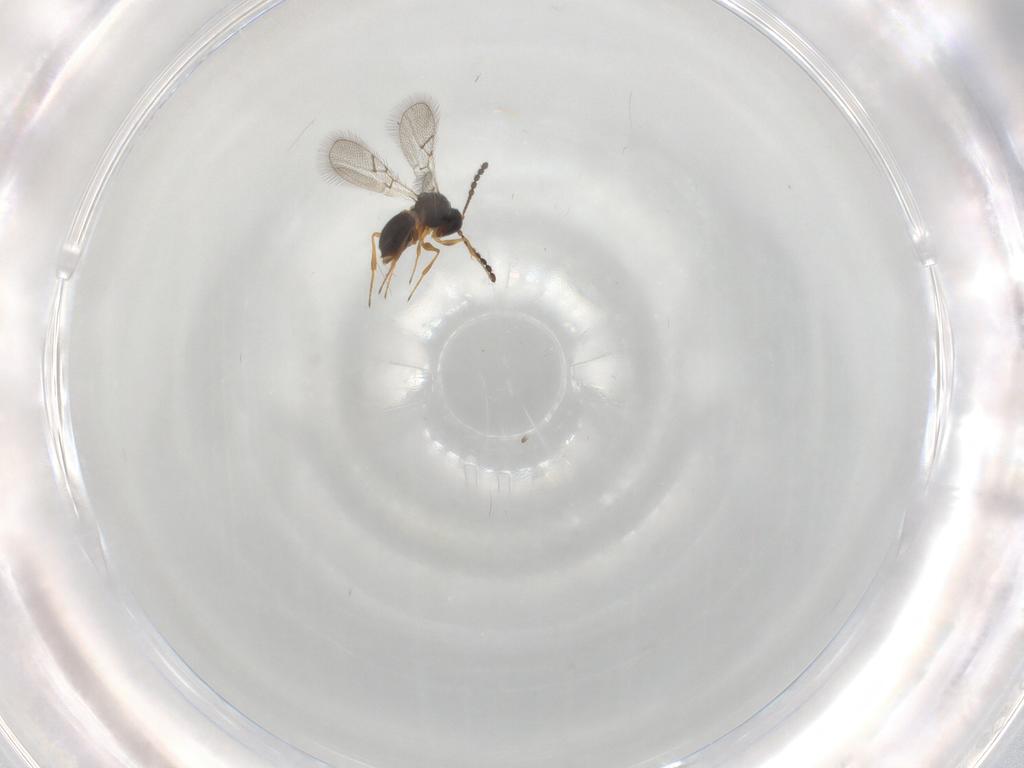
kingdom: Animalia
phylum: Arthropoda
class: Insecta
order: Hymenoptera
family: Figitidae
